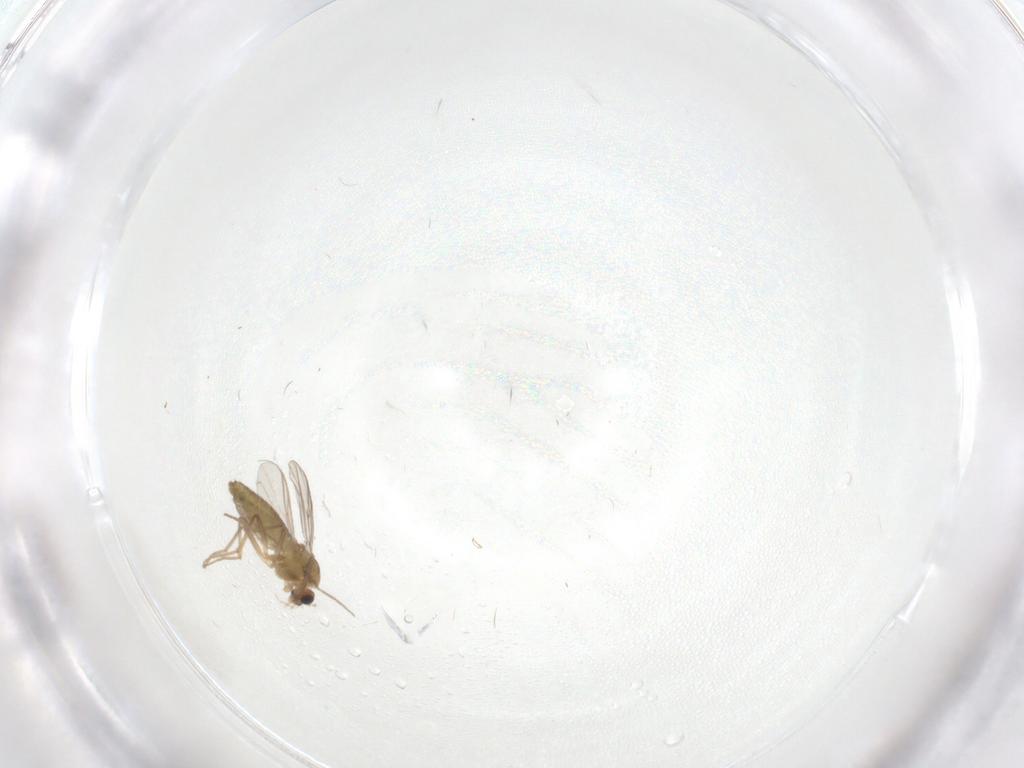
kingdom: Animalia
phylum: Arthropoda
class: Insecta
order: Diptera
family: Chironomidae
